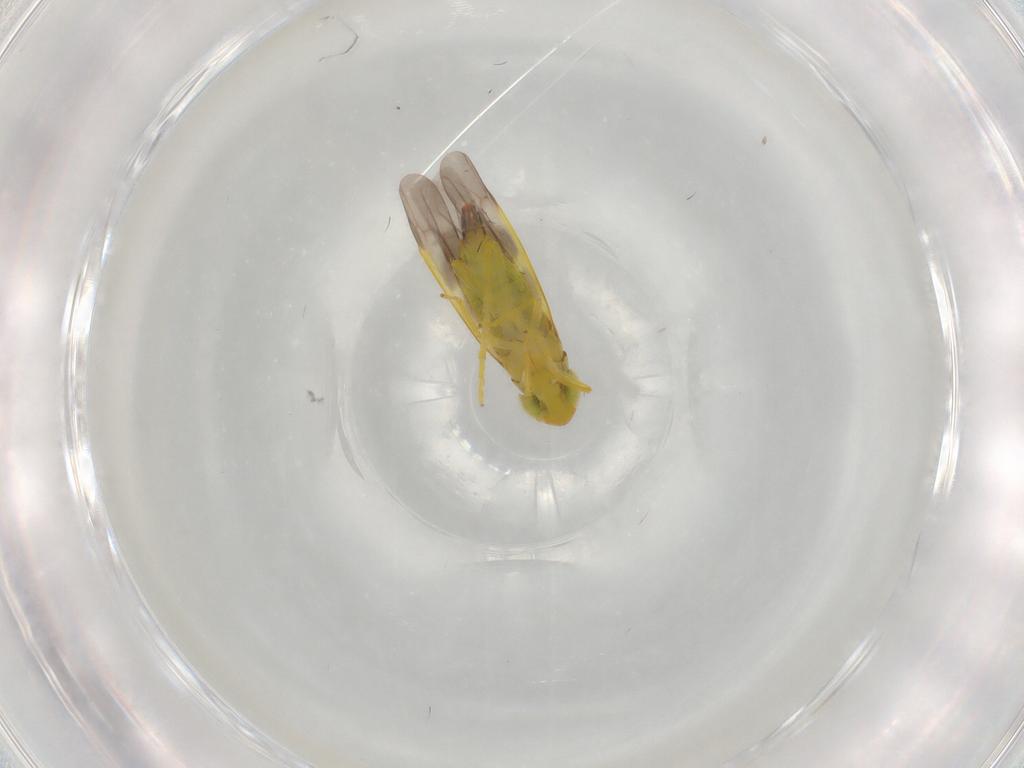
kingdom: Animalia
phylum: Arthropoda
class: Insecta
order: Hemiptera
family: Cicadellidae
